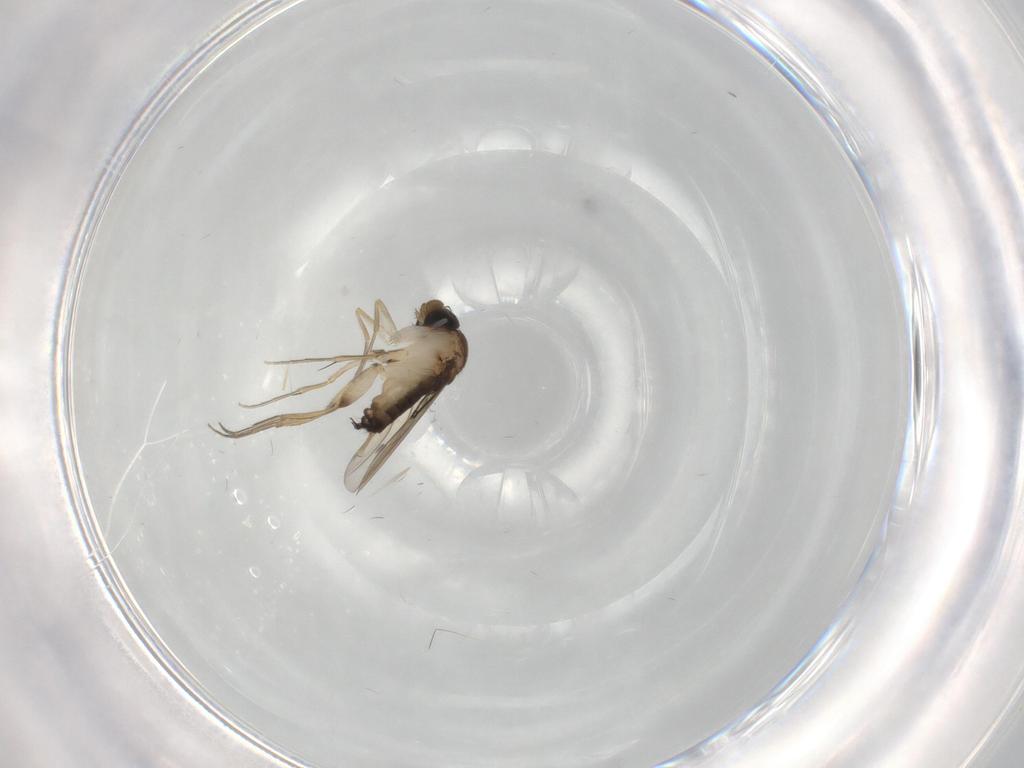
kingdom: Animalia
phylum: Arthropoda
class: Insecta
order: Diptera
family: Phoridae
